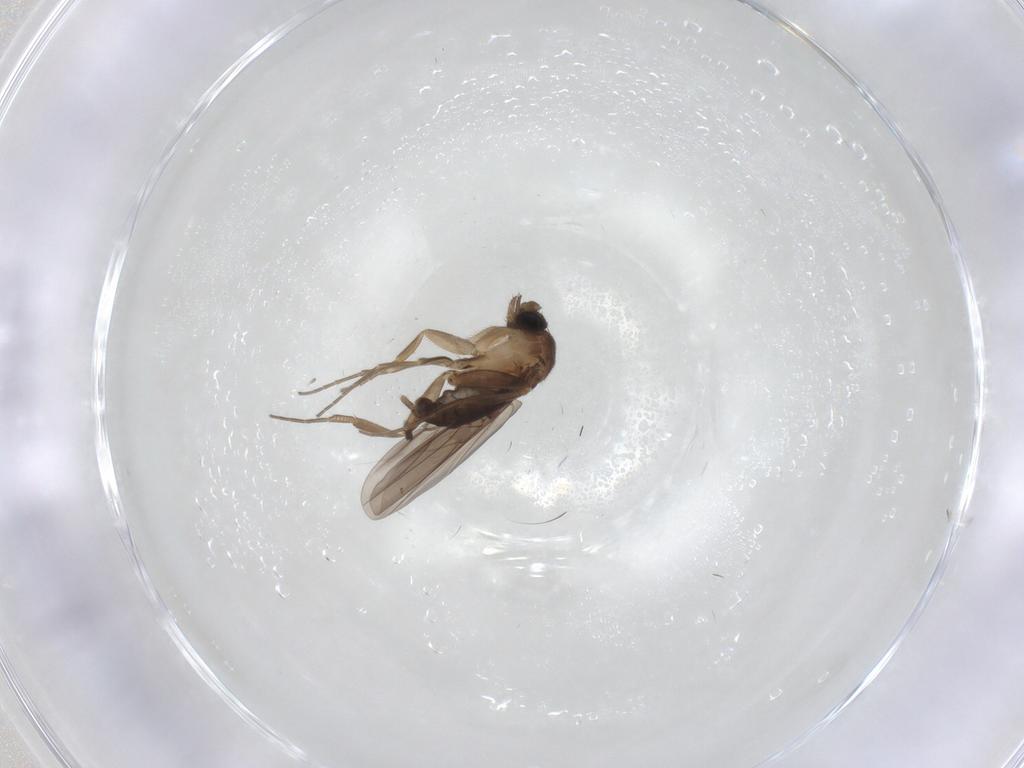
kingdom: Animalia
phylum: Arthropoda
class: Insecta
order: Diptera
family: Phoridae
